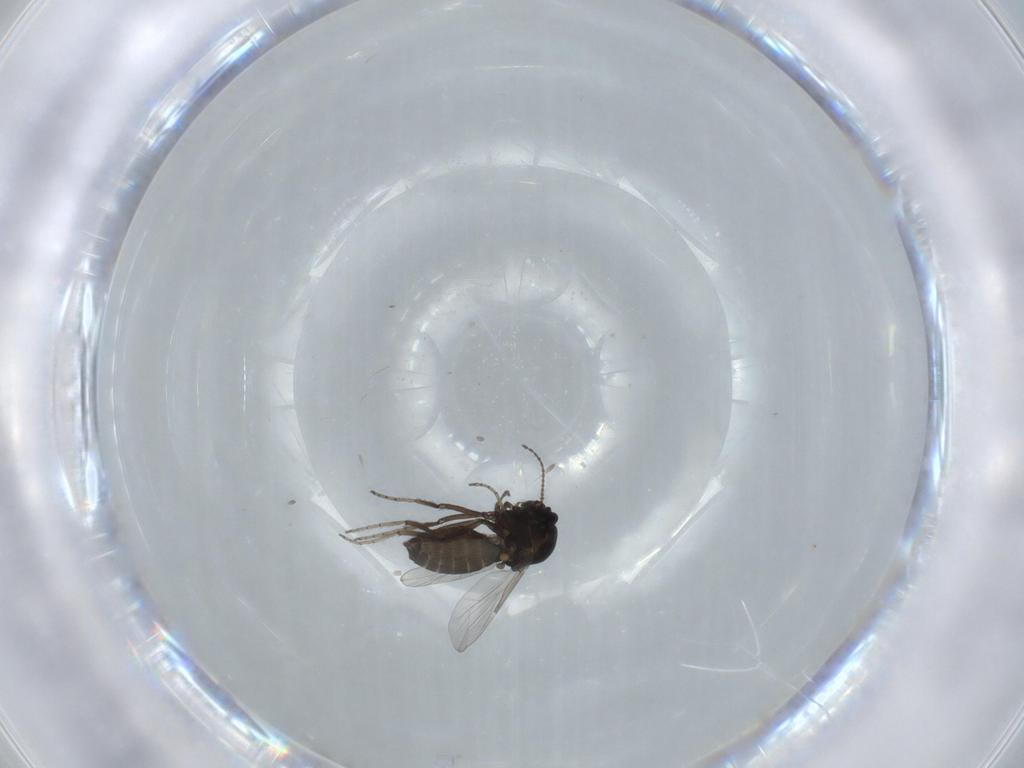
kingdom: Animalia
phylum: Arthropoda
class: Insecta
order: Diptera
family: Ceratopogonidae
